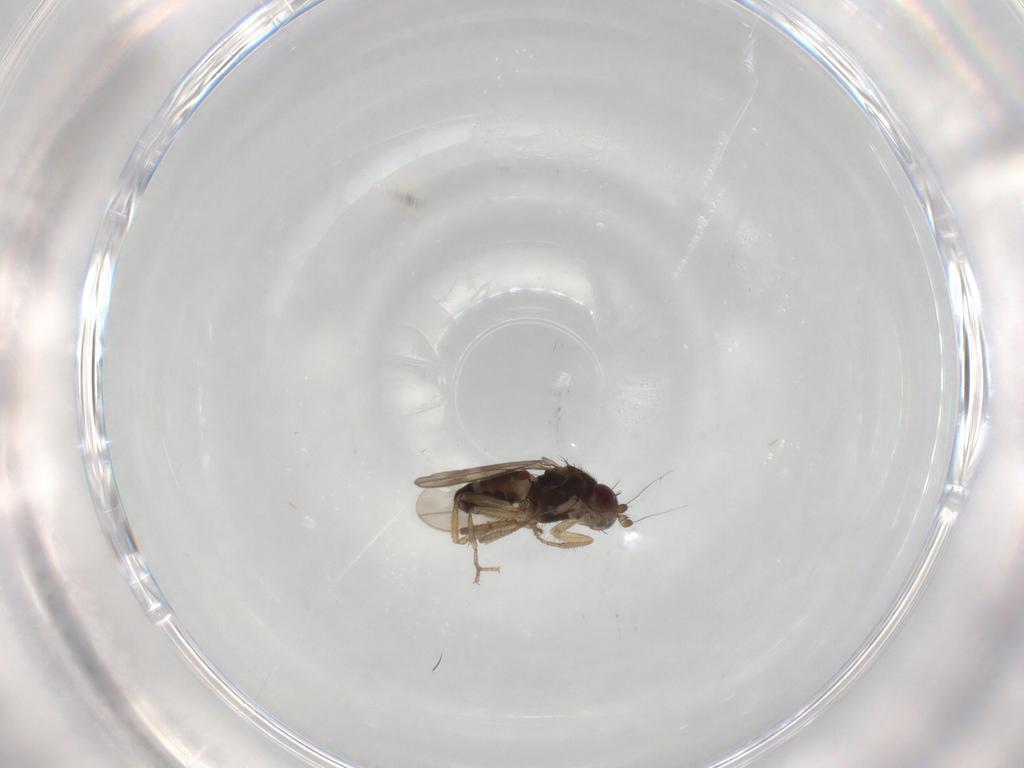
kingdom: Animalia
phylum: Arthropoda
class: Insecta
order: Diptera
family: Sphaeroceridae
